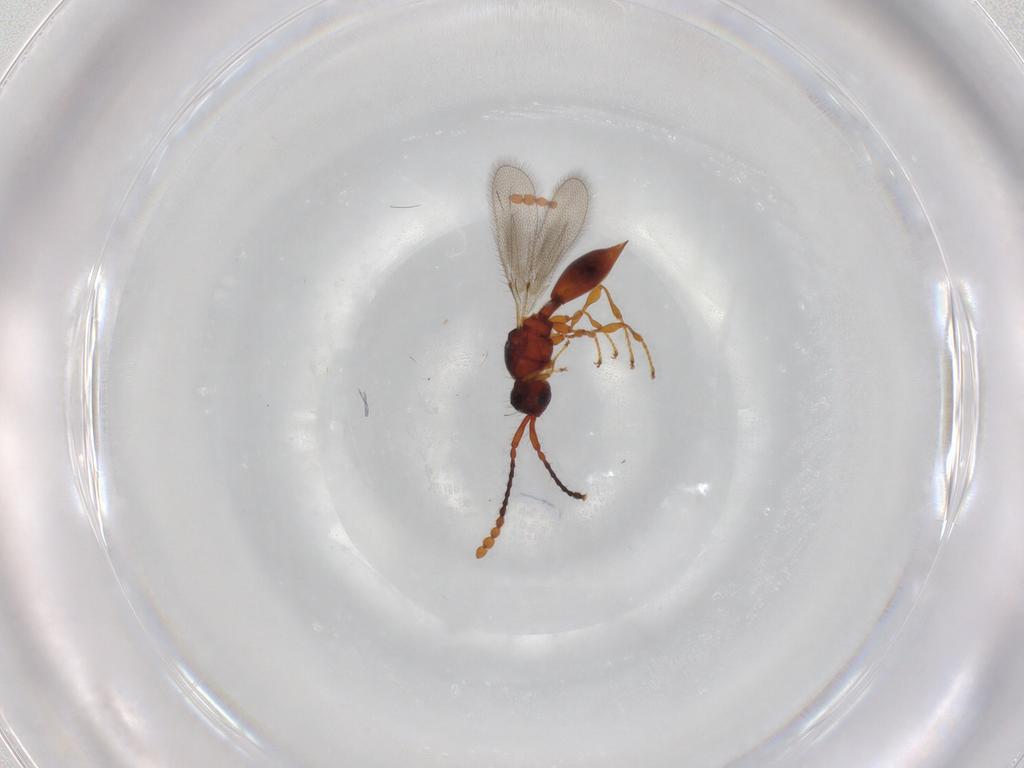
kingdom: Animalia
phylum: Arthropoda
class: Insecta
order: Hymenoptera
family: Diapriidae
